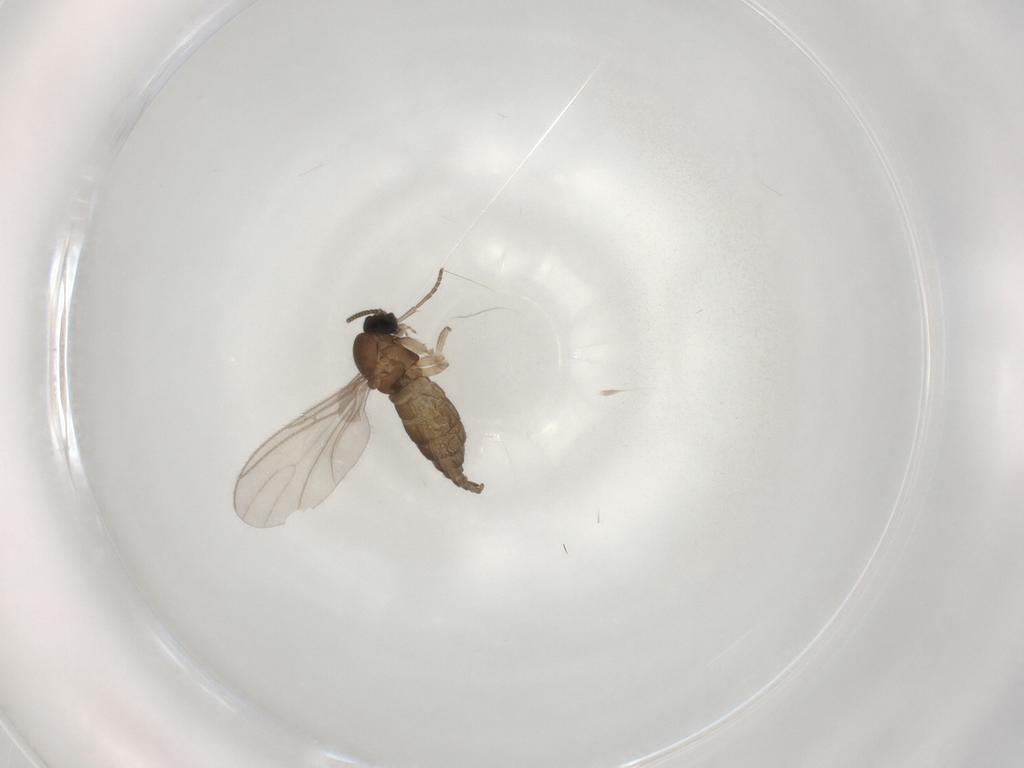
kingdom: Animalia
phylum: Arthropoda
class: Insecta
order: Diptera
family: Sciaridae
